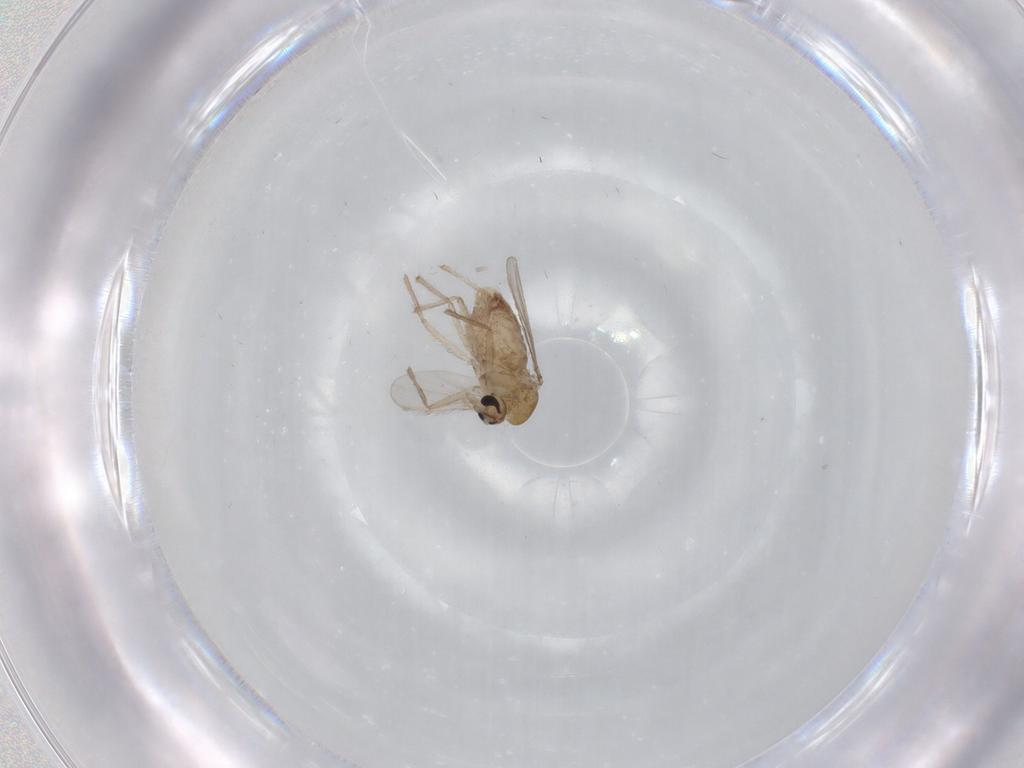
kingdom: Animalia
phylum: Arthropoda
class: Insecta
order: Diptera
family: Chironomidae
